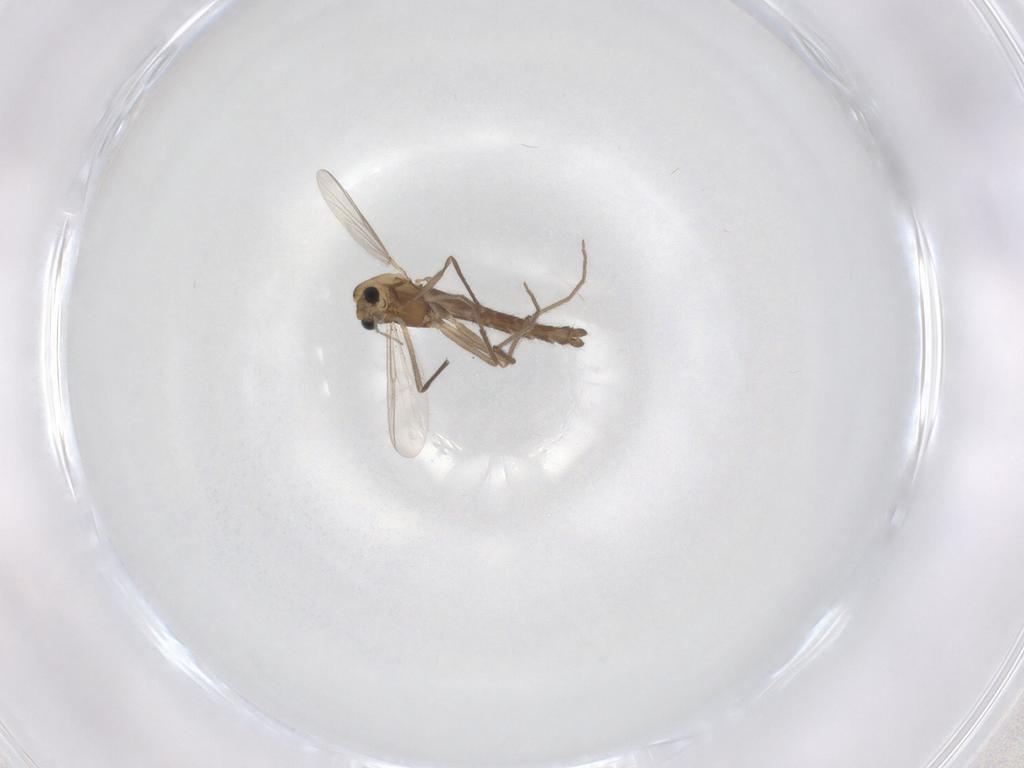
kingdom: Animalia
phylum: Arthropoda
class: Insecta
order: Diptera
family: Chironomidae
